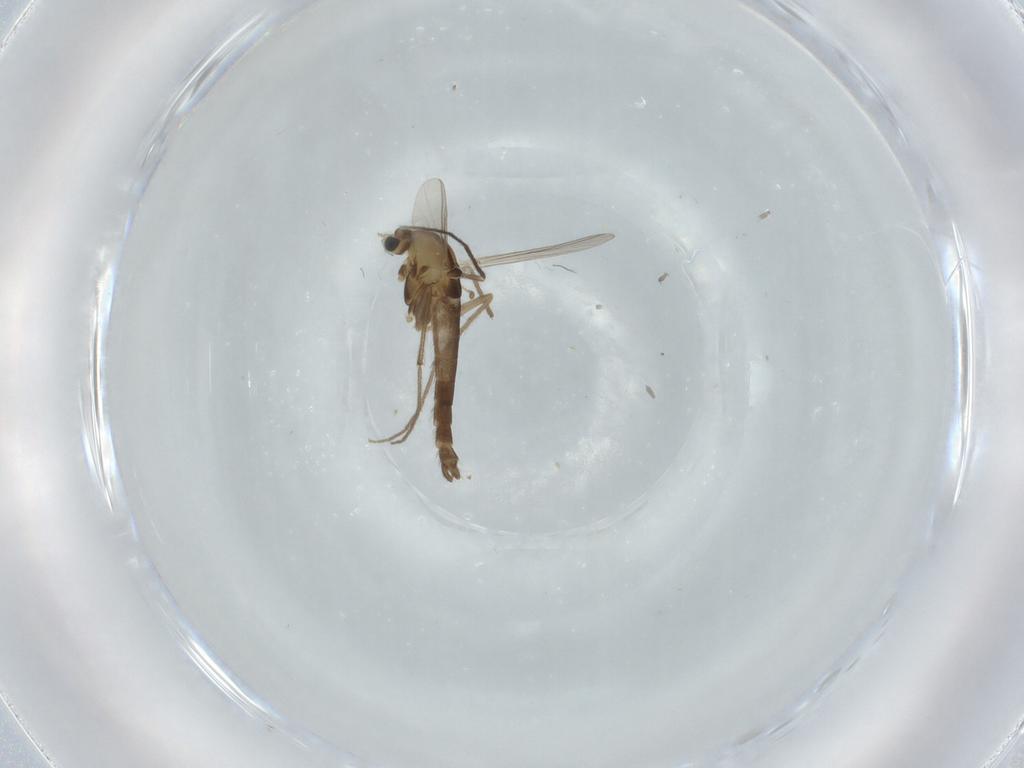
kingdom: Animalia
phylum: Arthropoda
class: Insecta
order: Diptera
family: Chironomidae
